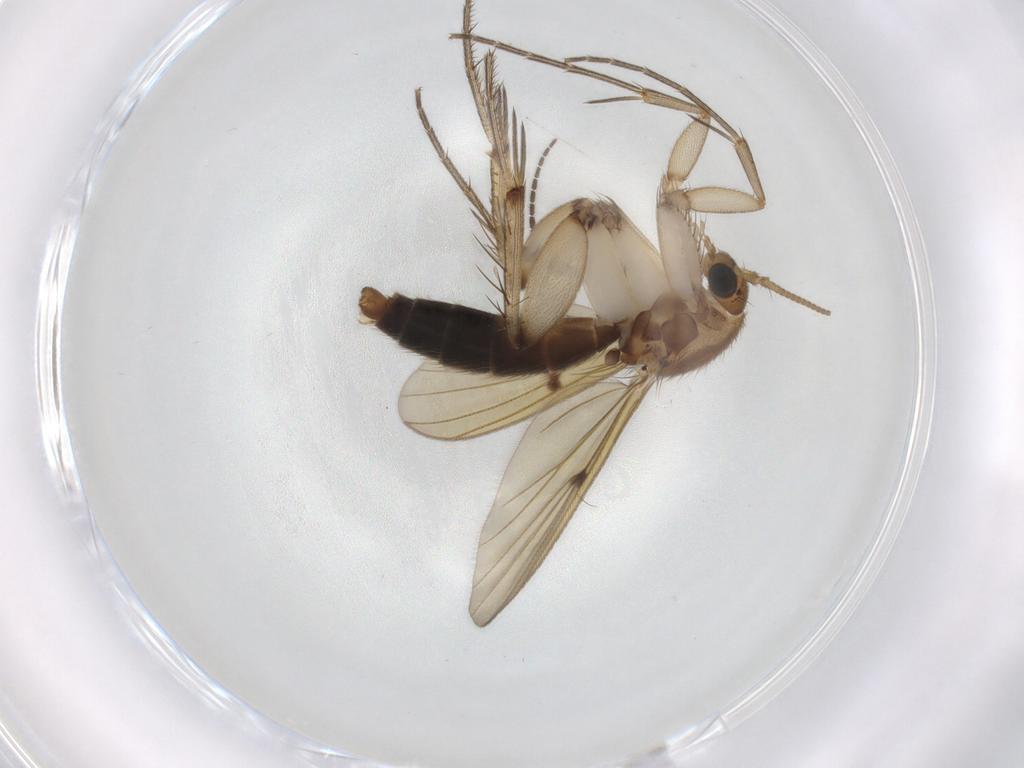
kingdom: Animalia
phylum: Arthropoda
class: Insecta
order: Diptera
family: Ceratopogonidae
